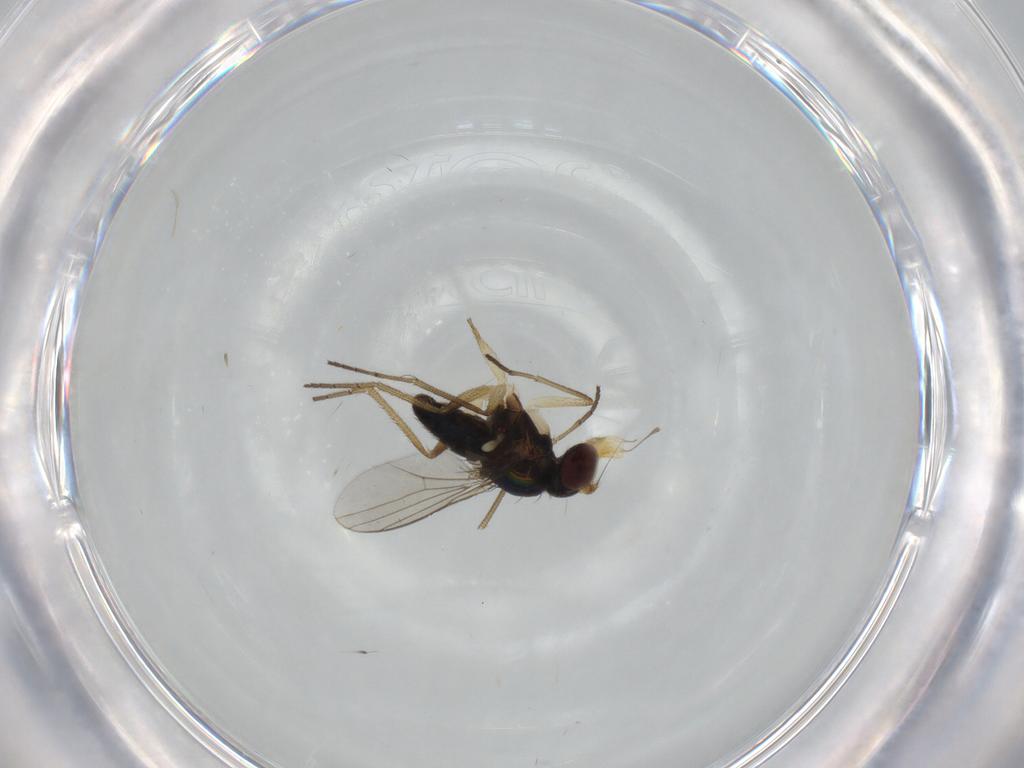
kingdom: Animalia
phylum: Arthropoda
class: Insecta
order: Diptera
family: Dolichopodidae
